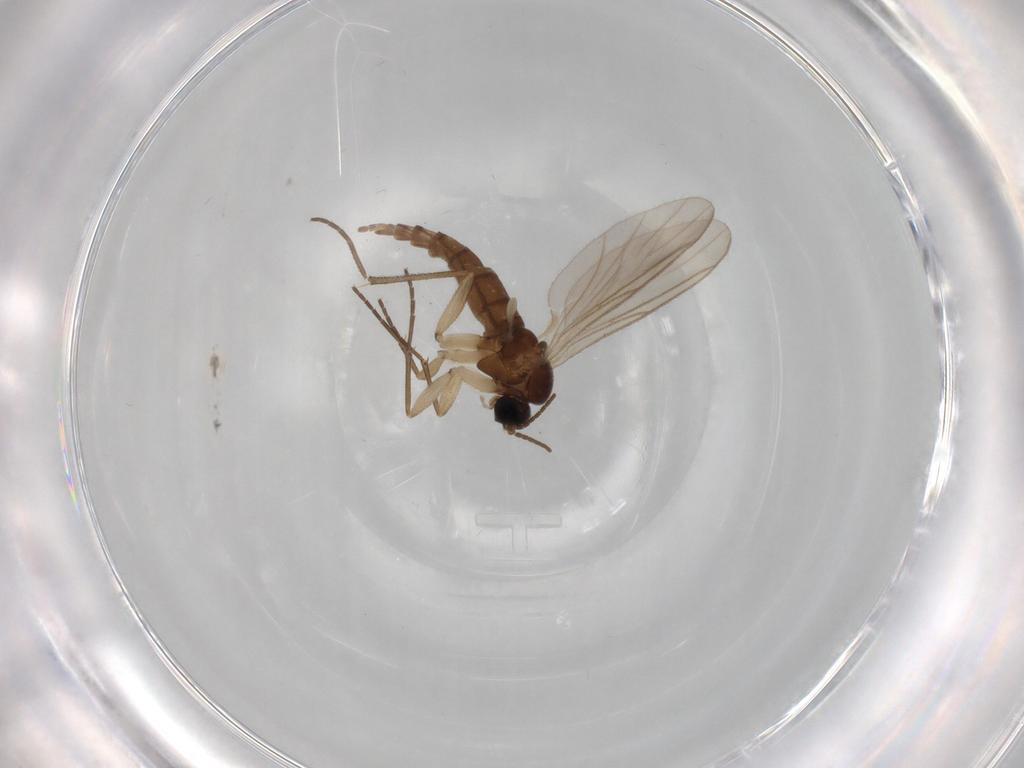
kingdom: Animalia
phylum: Arthropoda
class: Insecta
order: Diptera
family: Sciaridae
